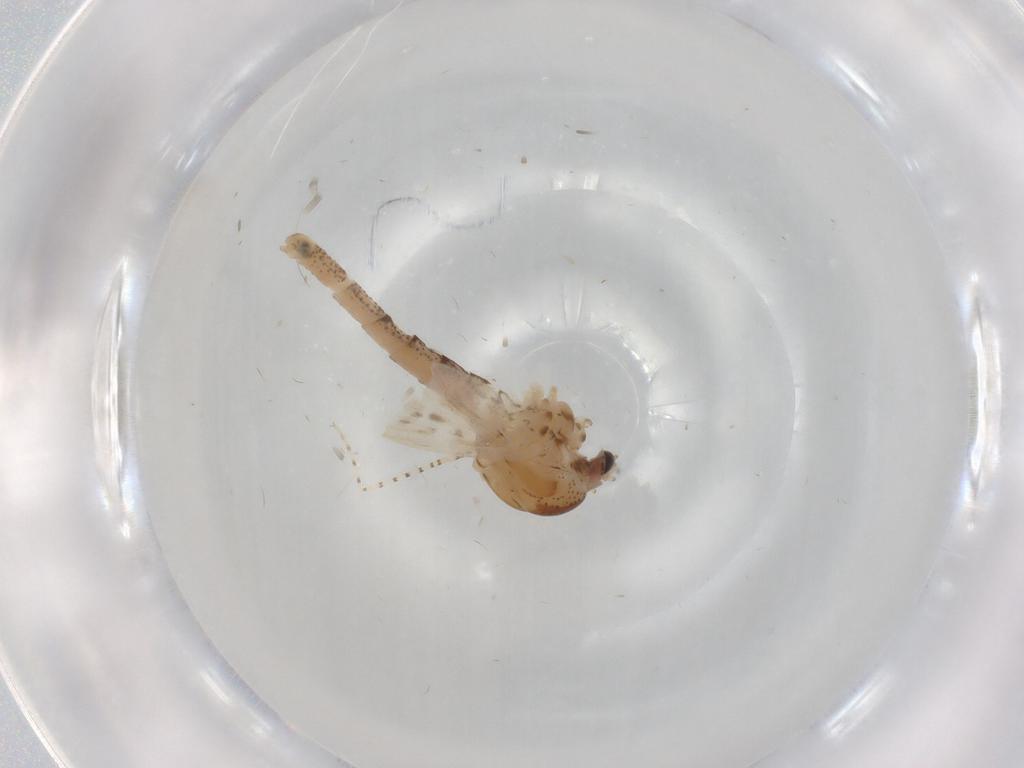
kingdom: Animalia
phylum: Arthropoda
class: Insecta
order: Diptera
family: Chaoboridae
